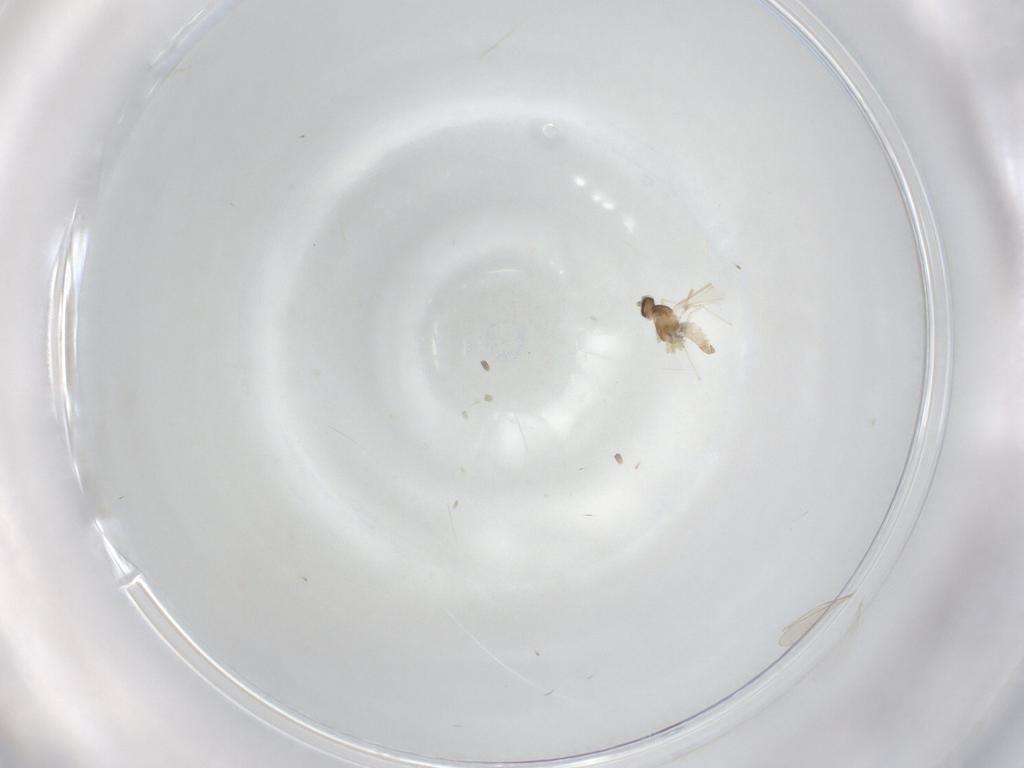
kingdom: Animalia
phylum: Arthropoda
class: Insecta
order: Diptera
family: Cecidomyiidae
